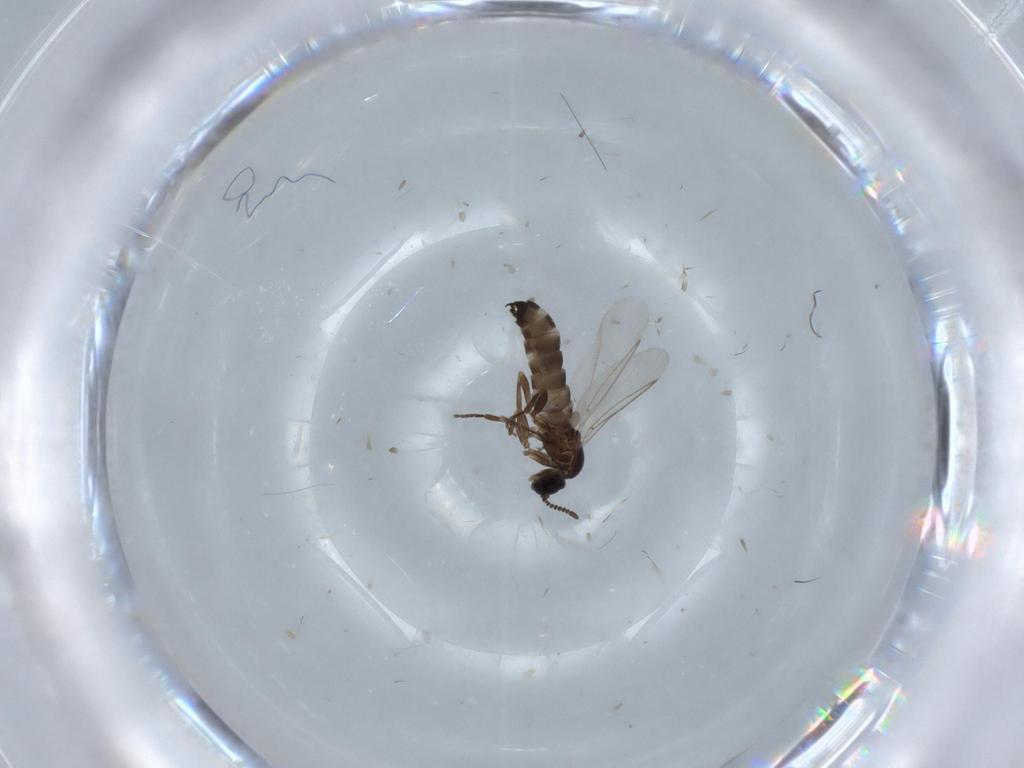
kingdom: Animalia
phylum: Arthropoda
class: Insecta
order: Diptera
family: Scatopsidae
